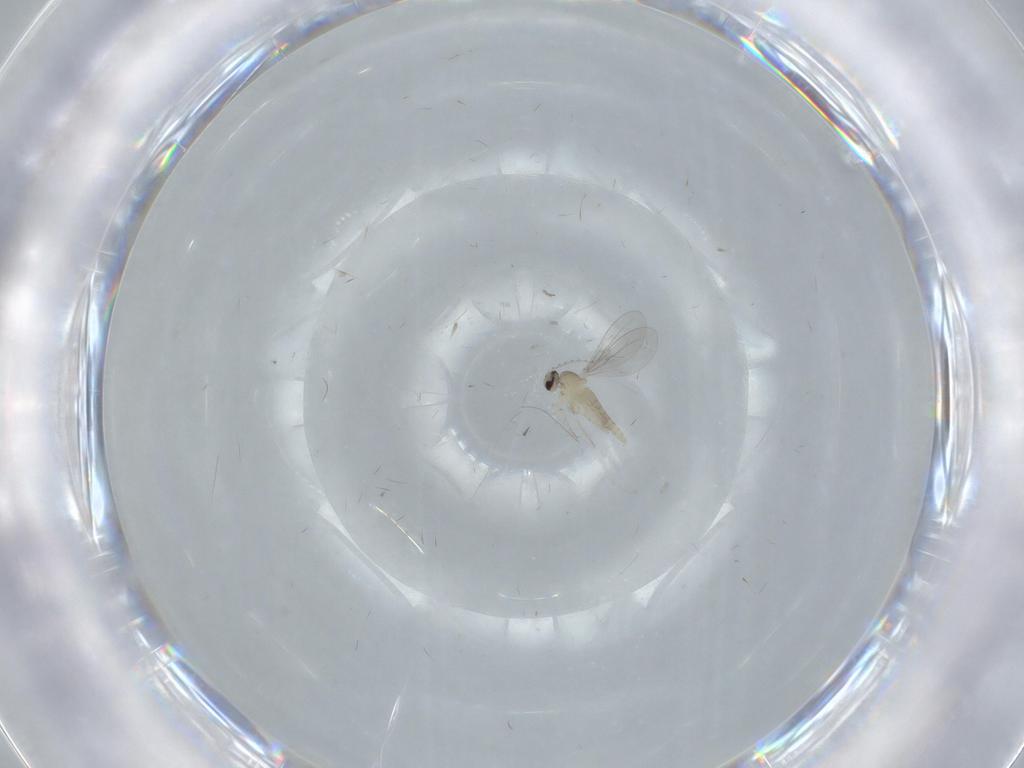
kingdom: Animalia
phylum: Arthropoda
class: Insecta
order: Diptera
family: Cecidomyiidae
